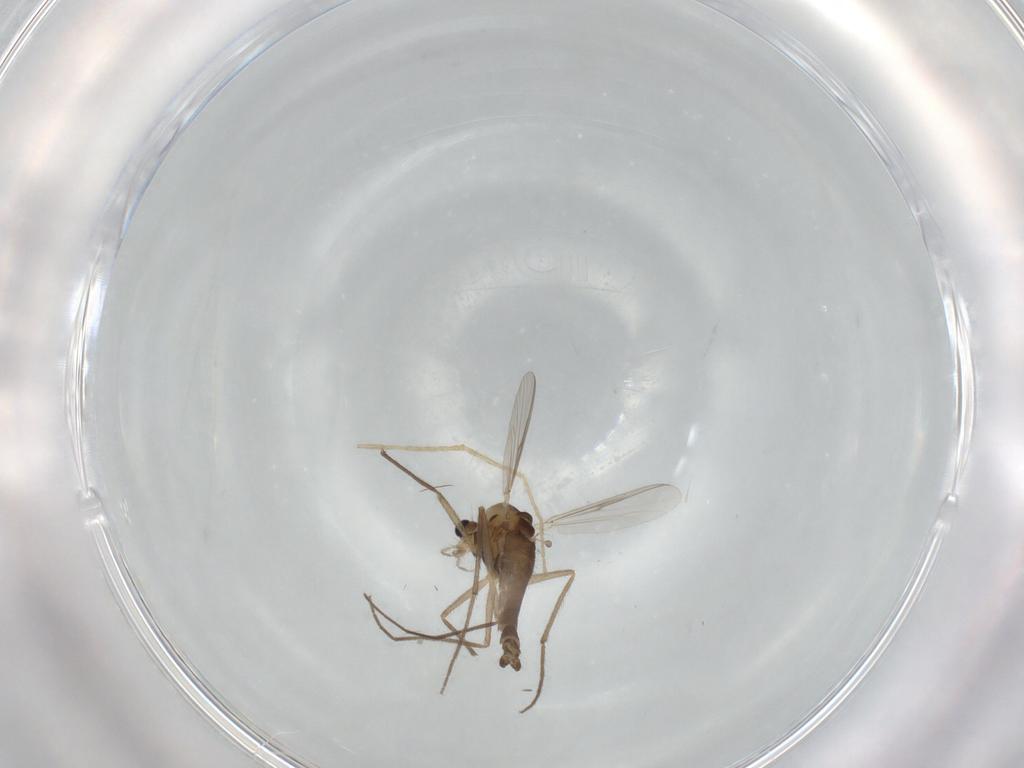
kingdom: Animalia
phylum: Arthropoda
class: Insecta
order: Diptera
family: Chironomidae
